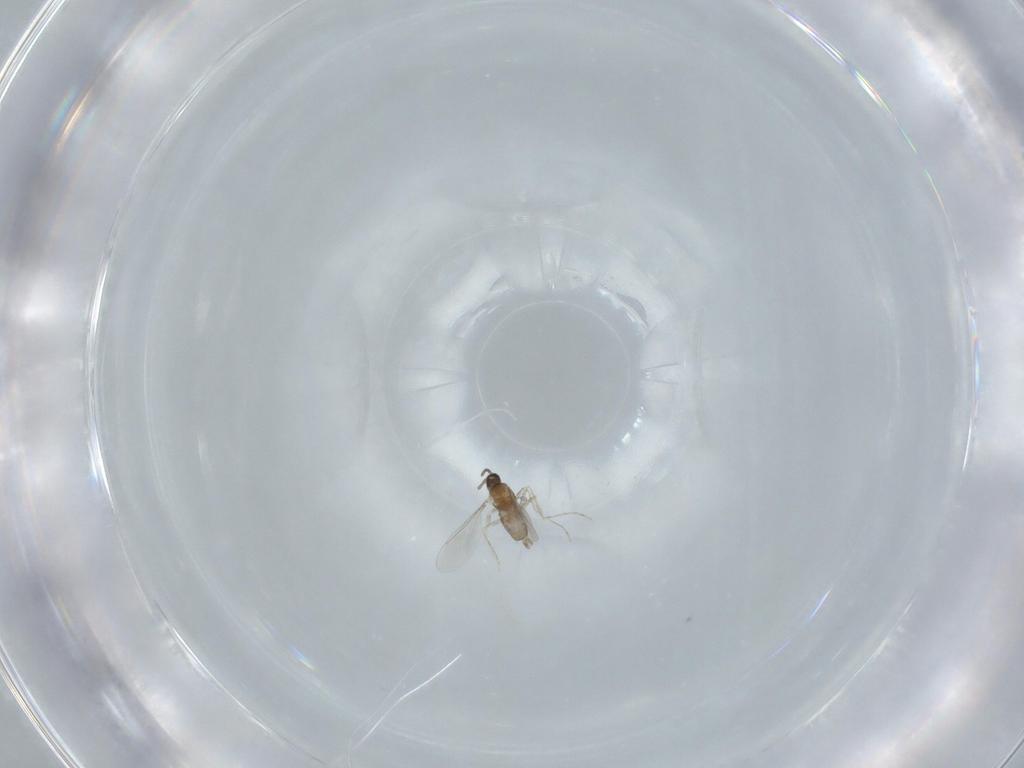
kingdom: Animalia
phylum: Arthropoda
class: Insecta
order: Diptera
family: Cecidomyiidae
